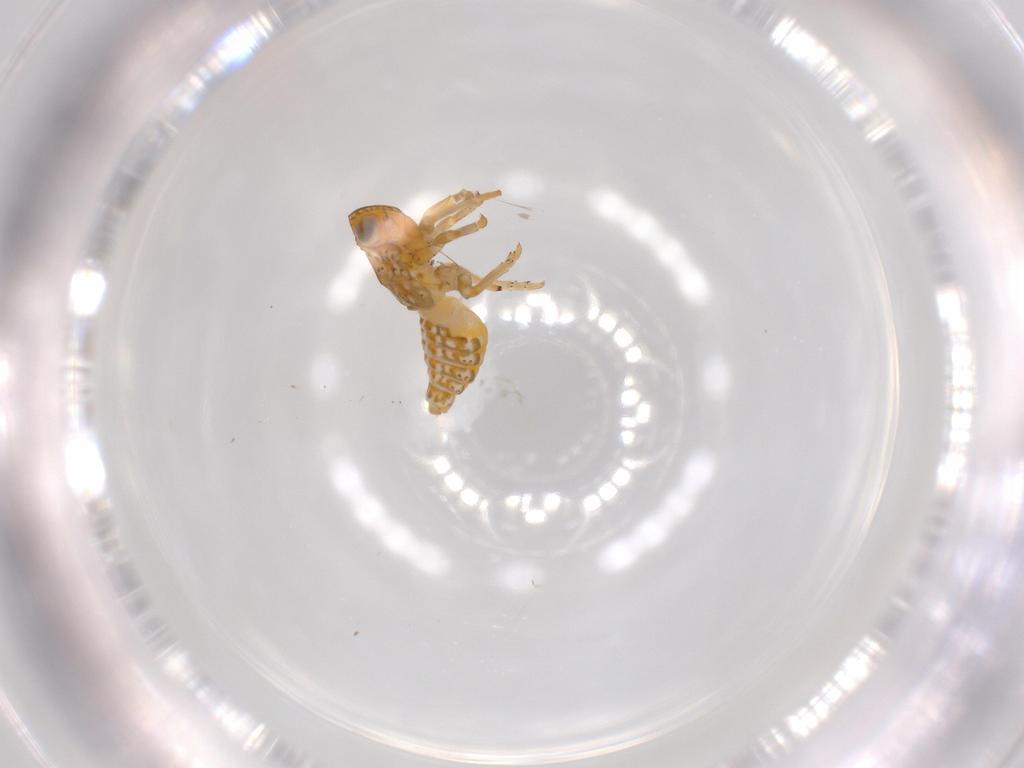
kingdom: Animalia
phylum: Arthropoda
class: Insecta
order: Hemiptera
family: Issidae
